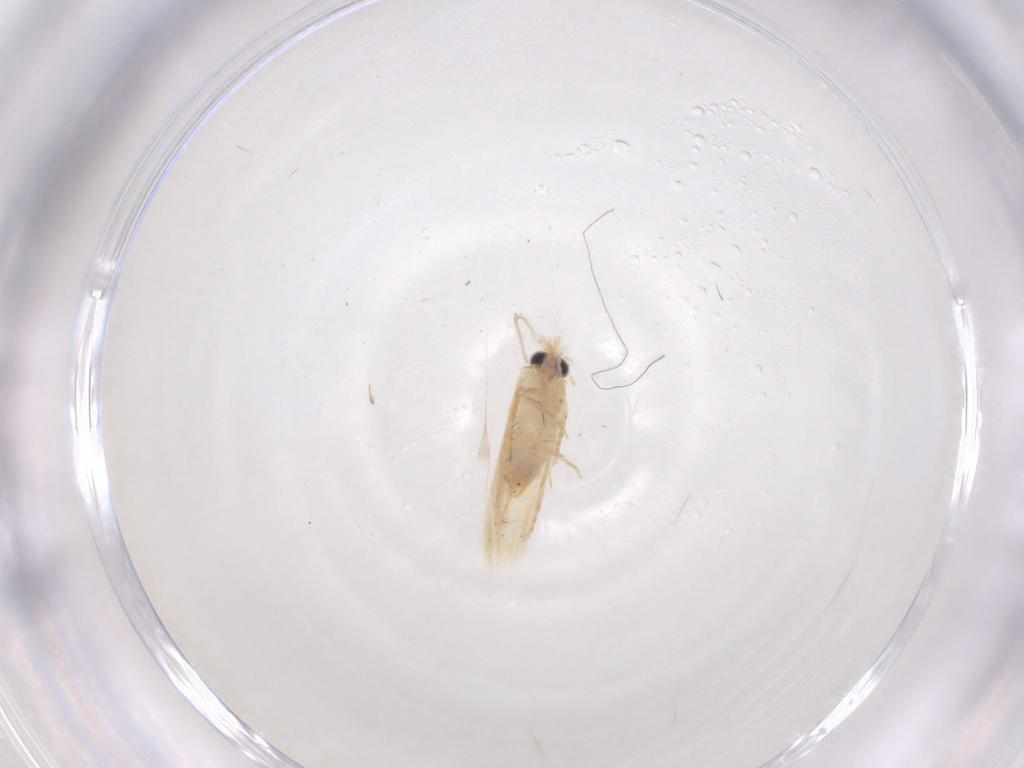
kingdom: Animalia
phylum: Arthropoda
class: Insecta
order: Lepidoptera
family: Nepticulidae
